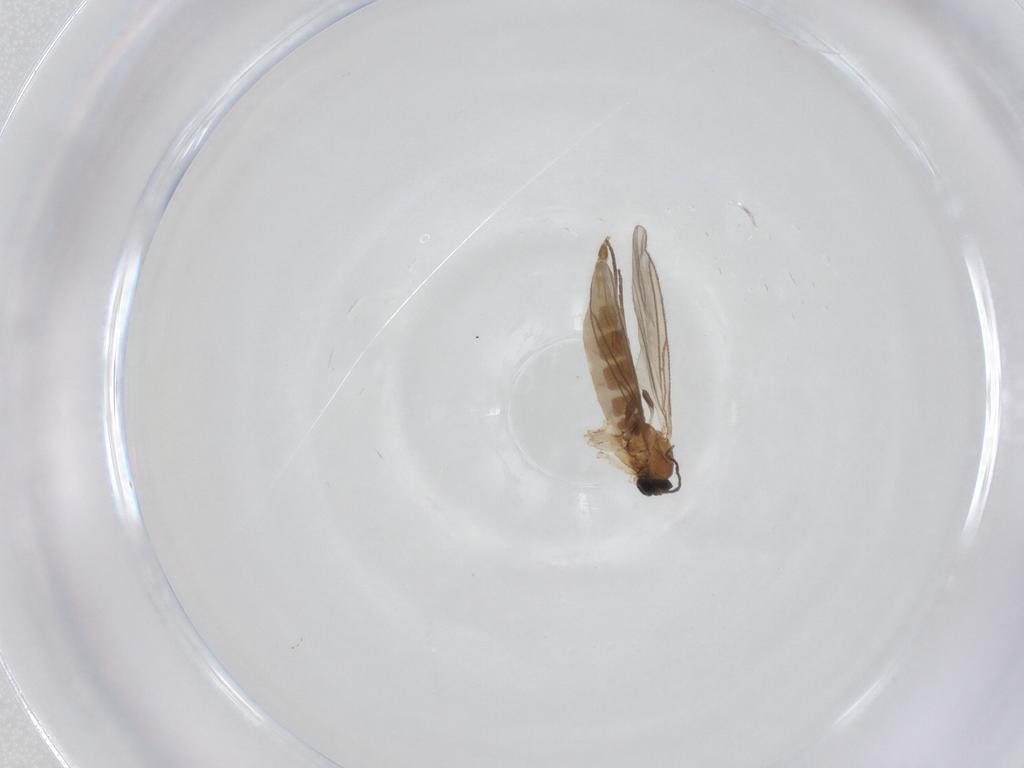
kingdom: Animalia
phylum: Arthropoda
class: Insecta
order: Diptera
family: Sciaridae
